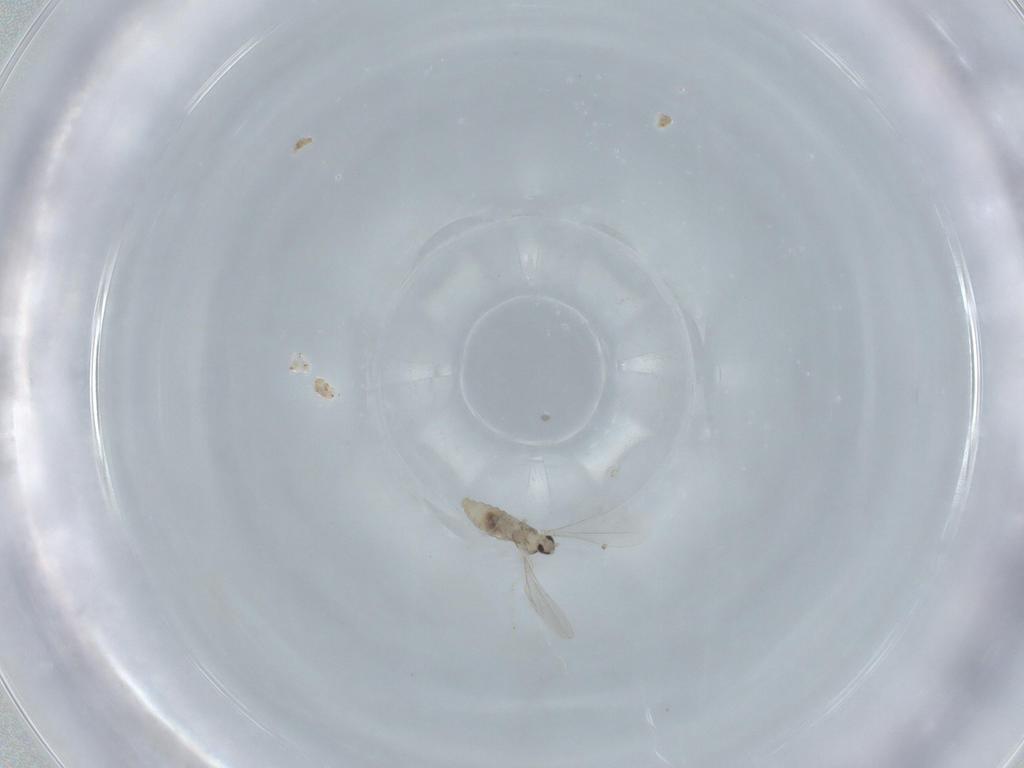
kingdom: Animalia
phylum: Arthropoda
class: Insecta
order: Diptera
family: Cecidomyiidae
